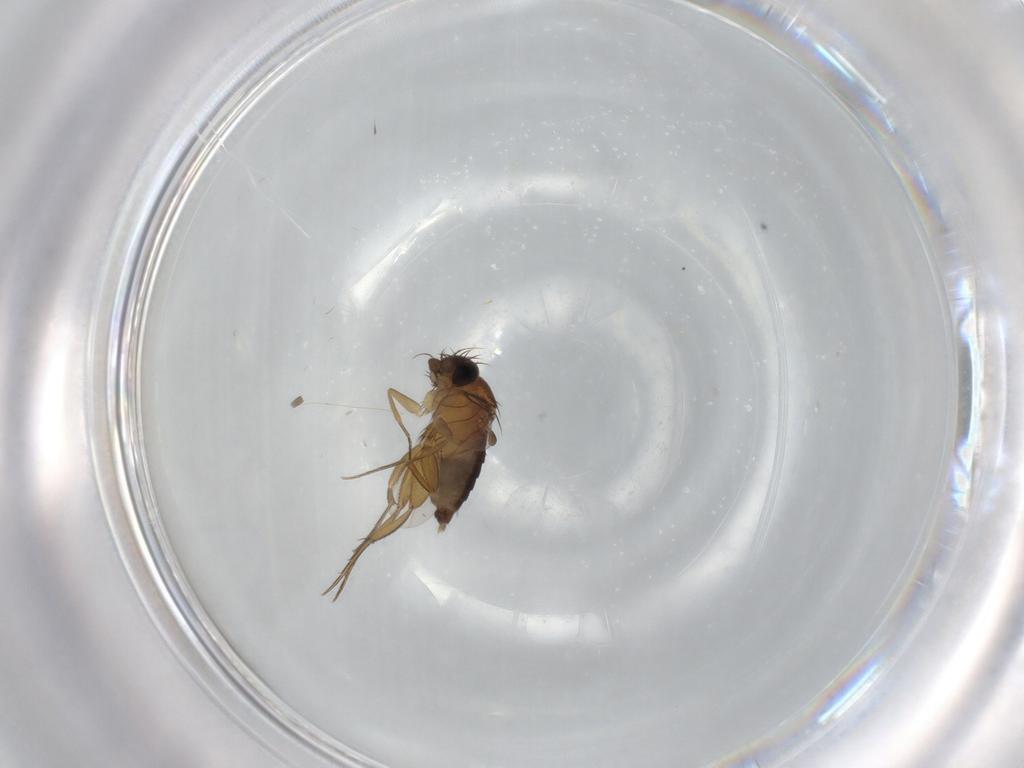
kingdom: Animalia
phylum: Arthropoda
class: Insecta
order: Diptera
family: Phoridae
